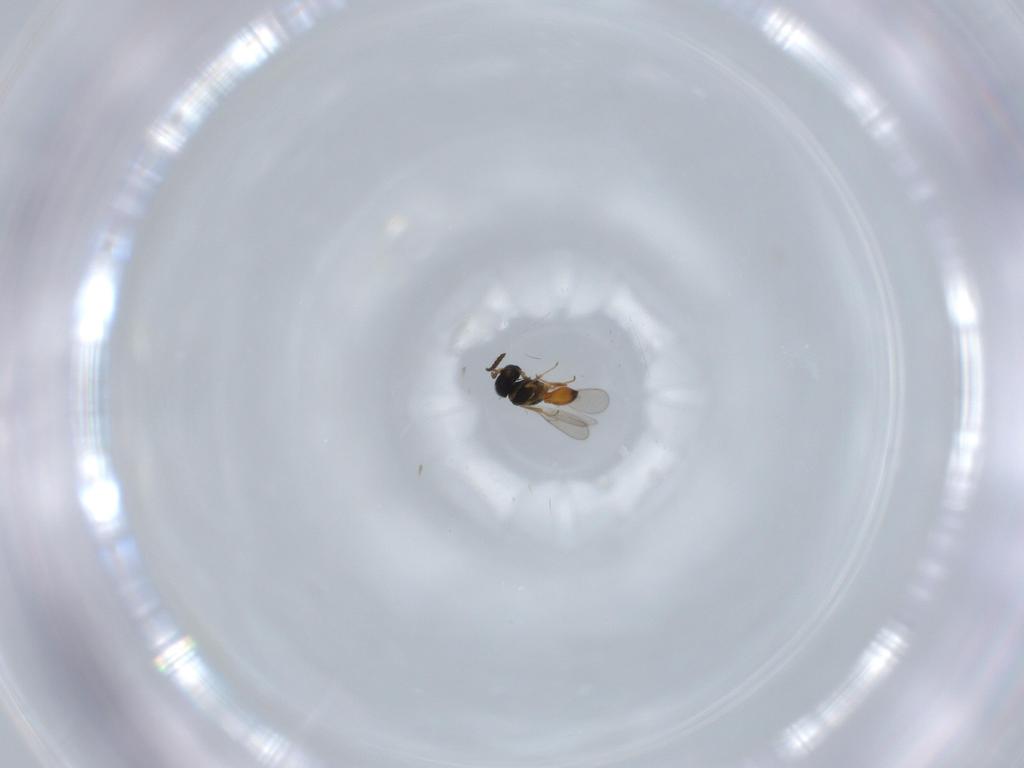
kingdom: Animalia
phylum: Arthropoda
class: Insecta
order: Hymenoptera
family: Scelionidae
